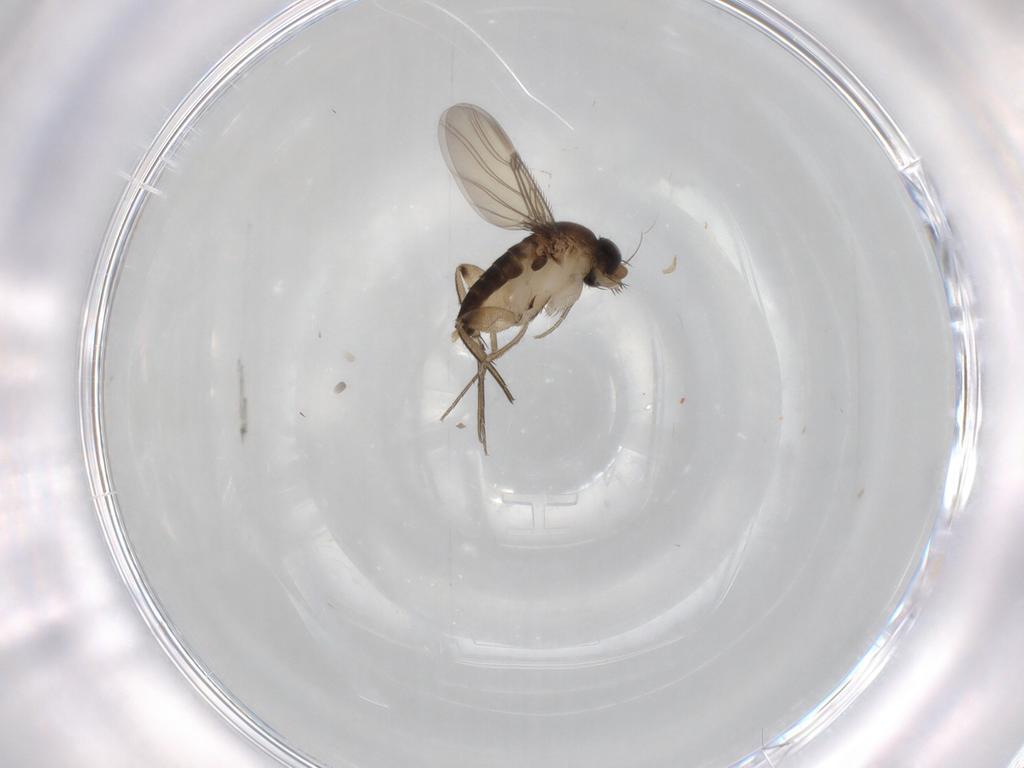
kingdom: Animalia
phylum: Arthropoda
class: Insecta
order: Diptera
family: Phoridae
